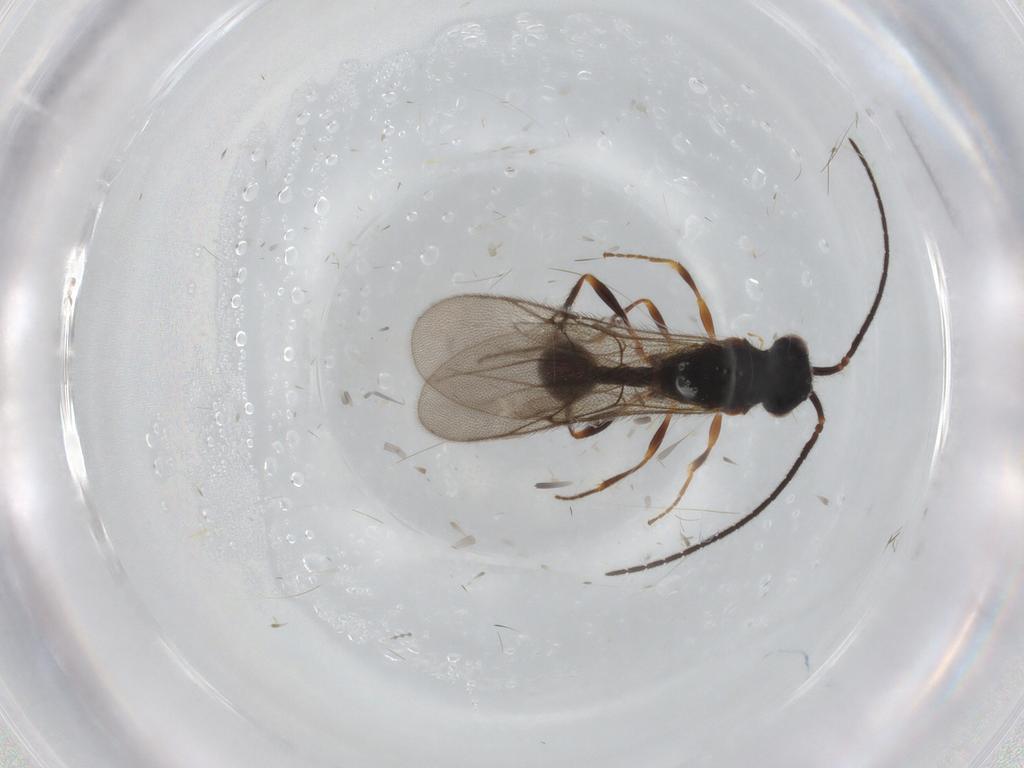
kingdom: Animalia
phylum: Arthropoda
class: Insecta
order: Hymenoptera
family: Diapriidae
